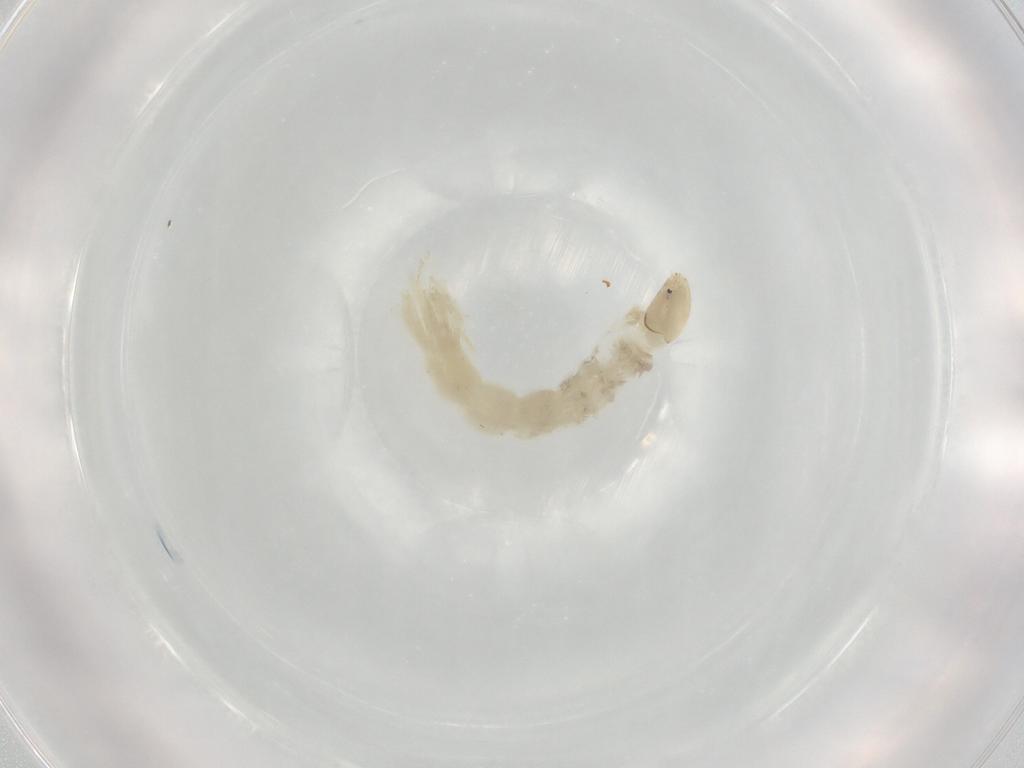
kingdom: Animalia
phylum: Arthropoda
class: Insecta
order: Diptera
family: Chironomidae
